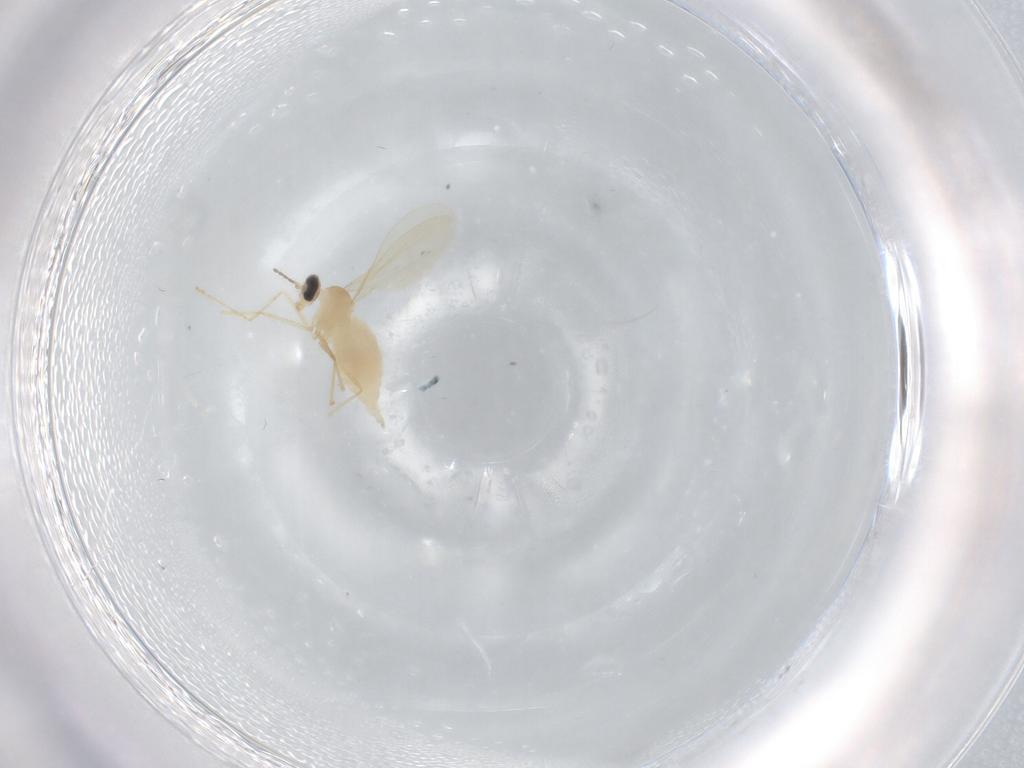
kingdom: Animalia
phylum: Arthropoda
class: Insecta
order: Diptera
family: Cecidomyiidae
